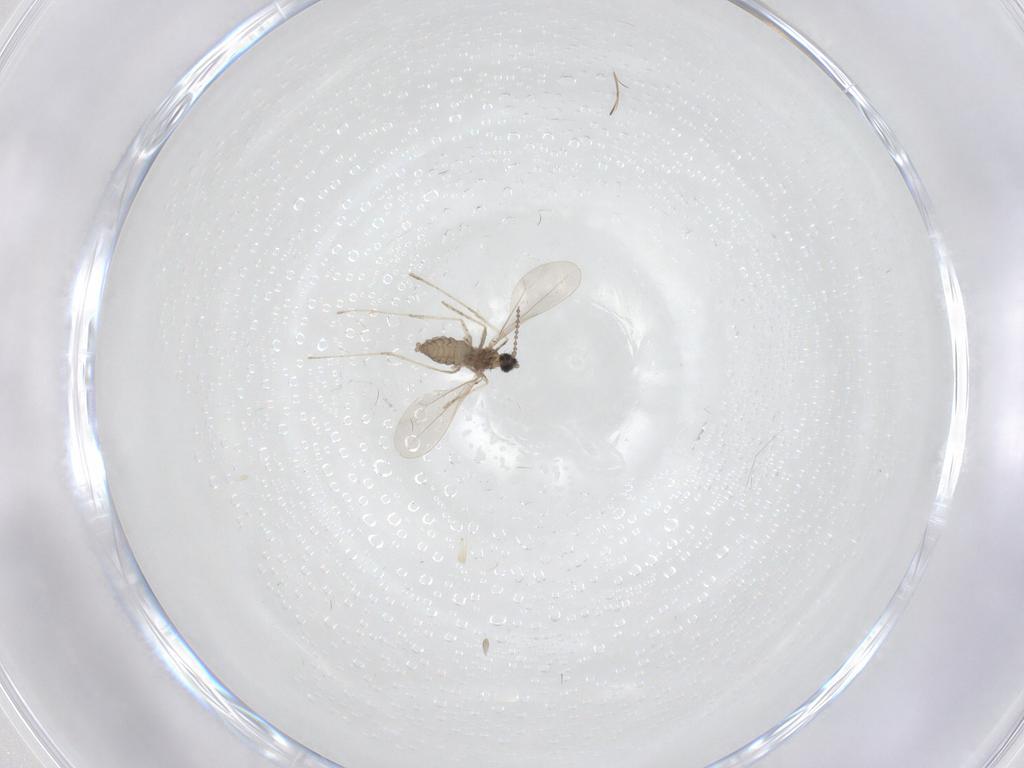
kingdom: Animalia
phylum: Arthropoda
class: Insecta
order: Diptera
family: Cecidomyiidae
